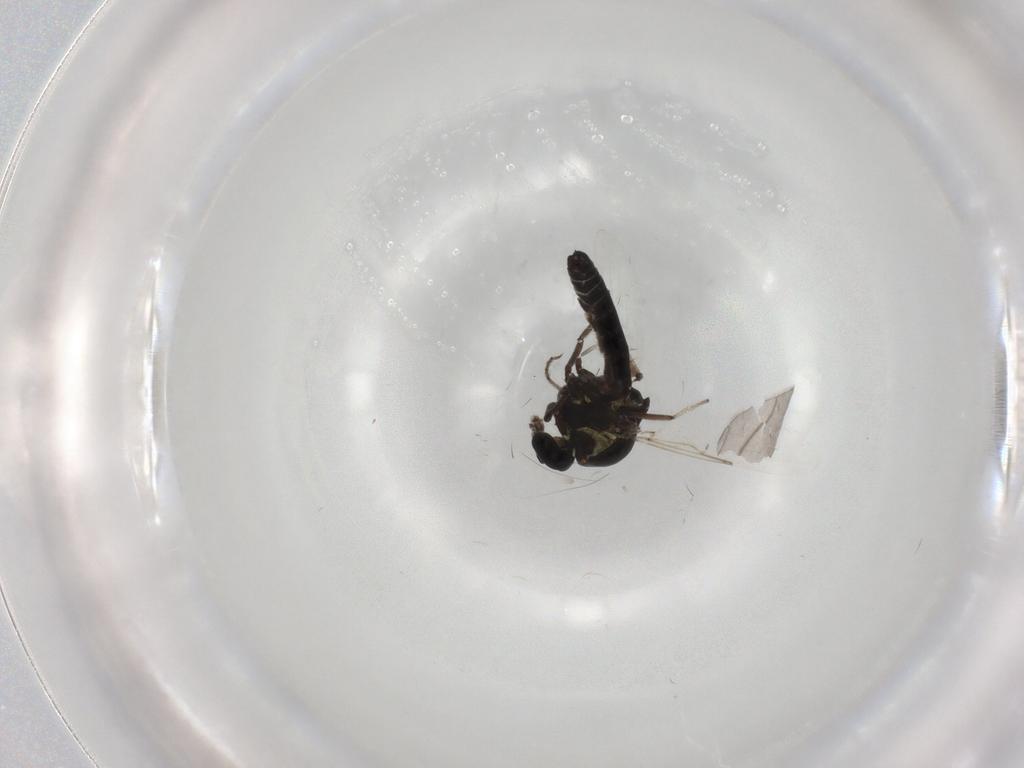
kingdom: Animalia
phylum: Arthropoda
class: Insecta
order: Diptera
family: Ceratopogonidae
